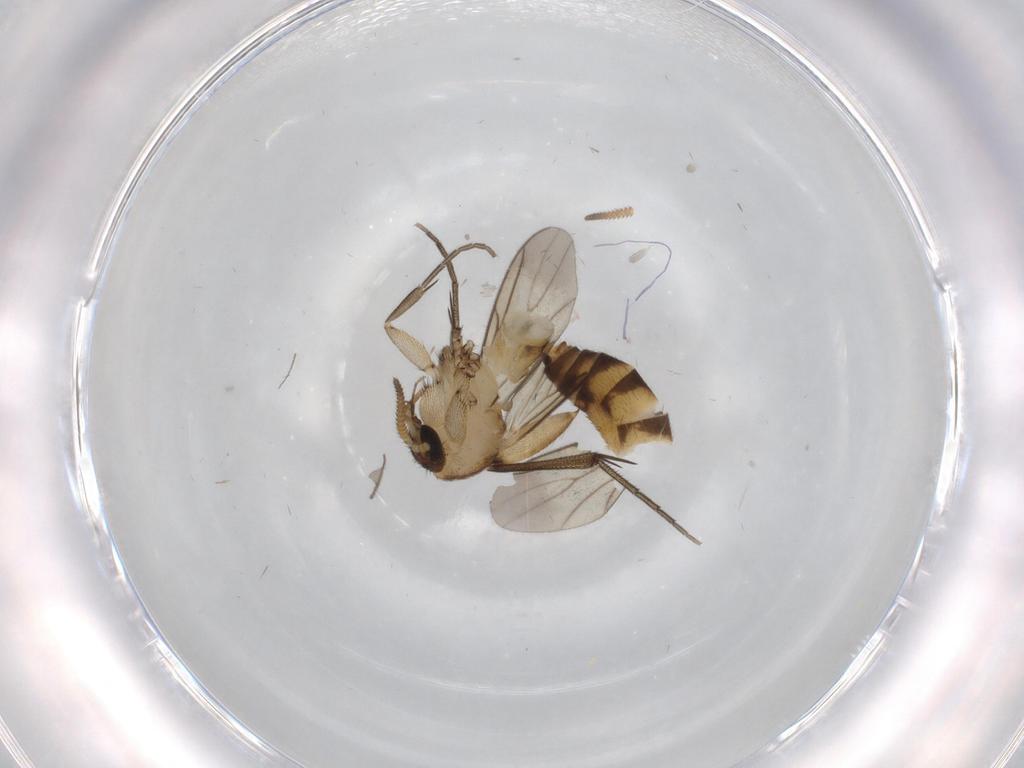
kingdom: Animalia
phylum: Arthropoda
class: Insecta
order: Diptera
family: Mycetophilidae
